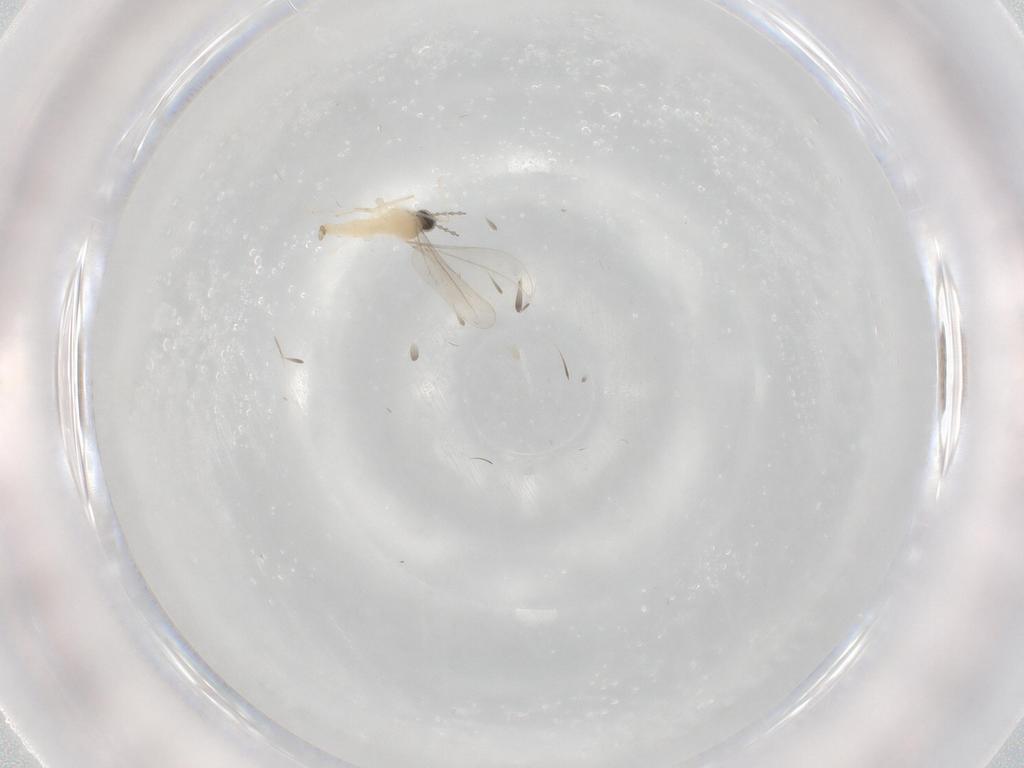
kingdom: Animalia
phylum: Arthropoda
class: Insecta
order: Diptera
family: Cecidomyiidae
